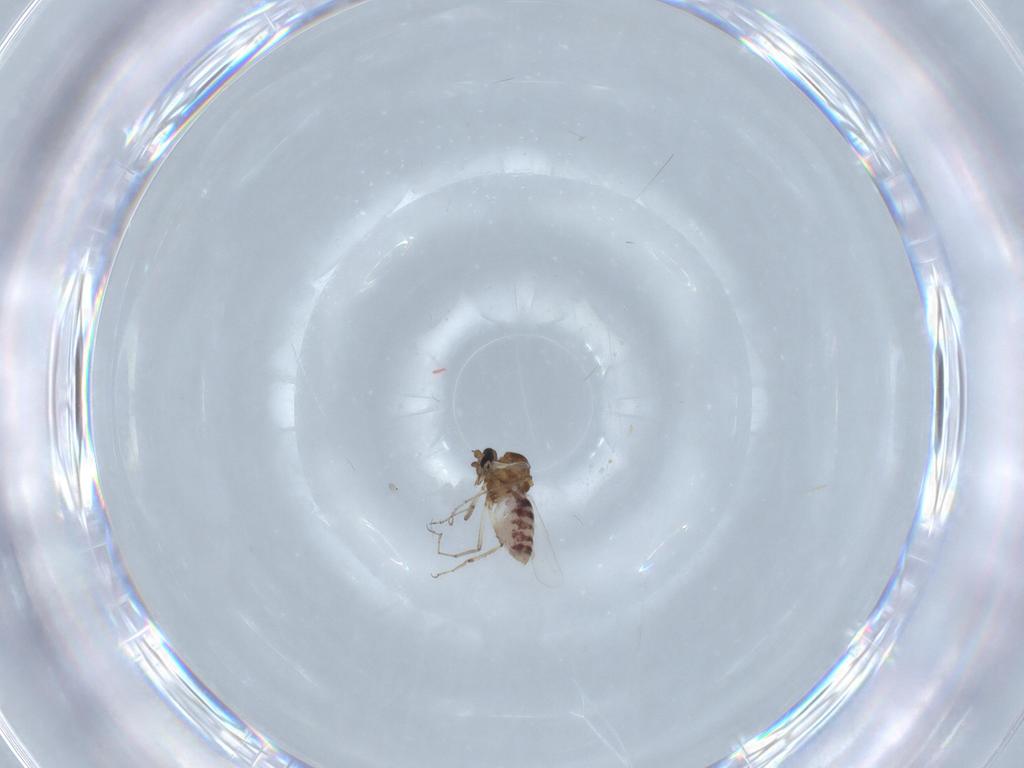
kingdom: Animalia
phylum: Arthropoda
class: Insecta
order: Diptera
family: Ceratopogonidae
